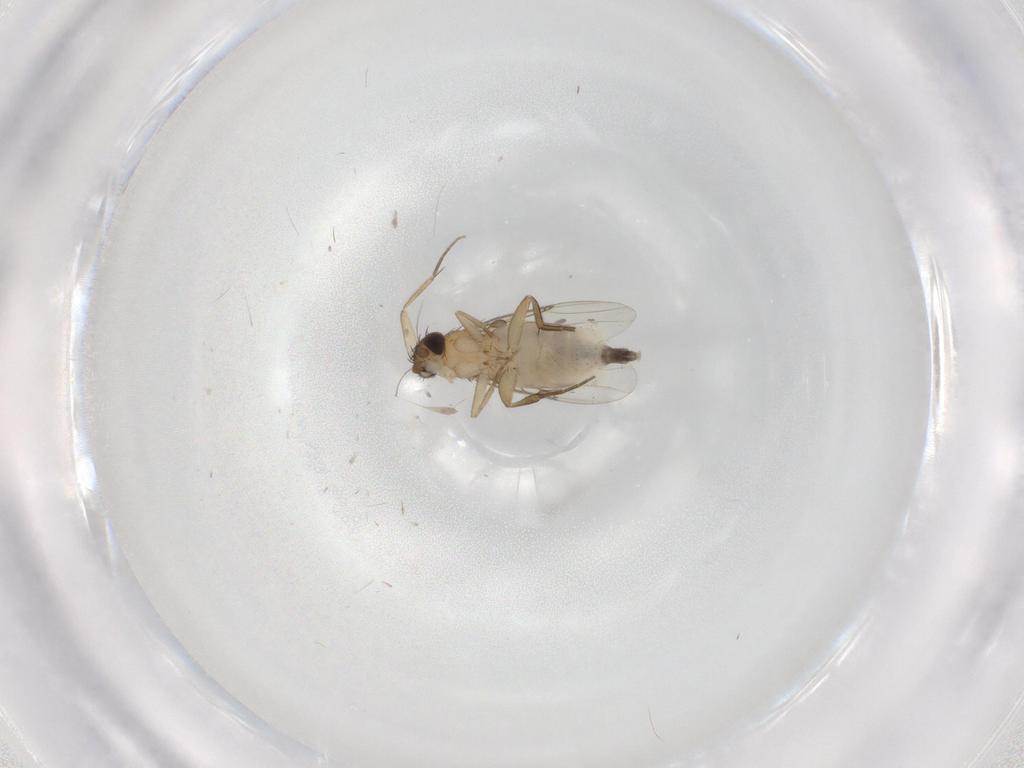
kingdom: Animalia
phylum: Arthropoda
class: Insecta
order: Diptera
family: Phoridae
